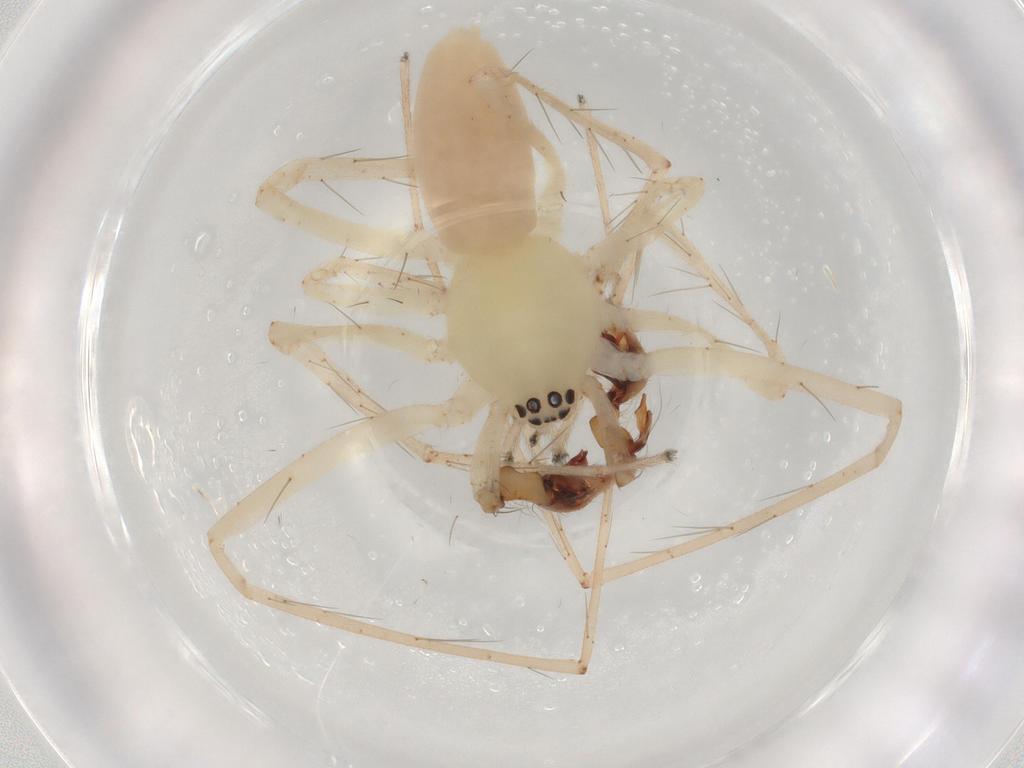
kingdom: Animalia
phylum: Arthropoda
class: Arachnida
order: Araneae
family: Anyphaenidae
